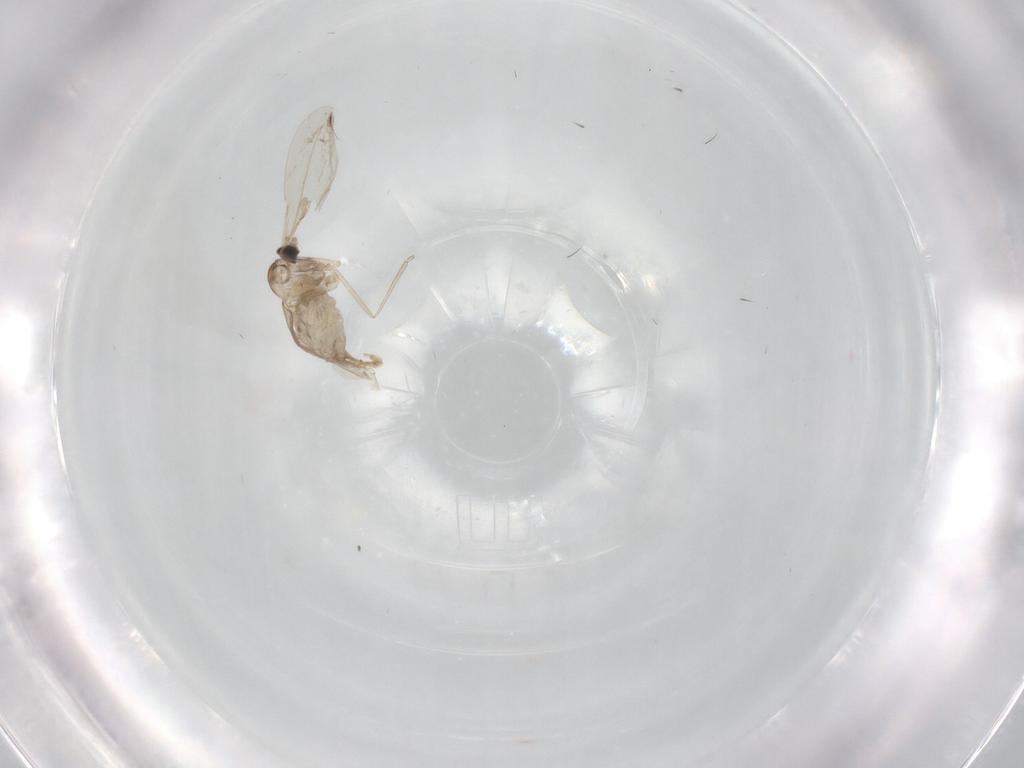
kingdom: Animalia
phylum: Arthropoda
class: Insecta
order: Diptera
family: Cecidomyiidae
